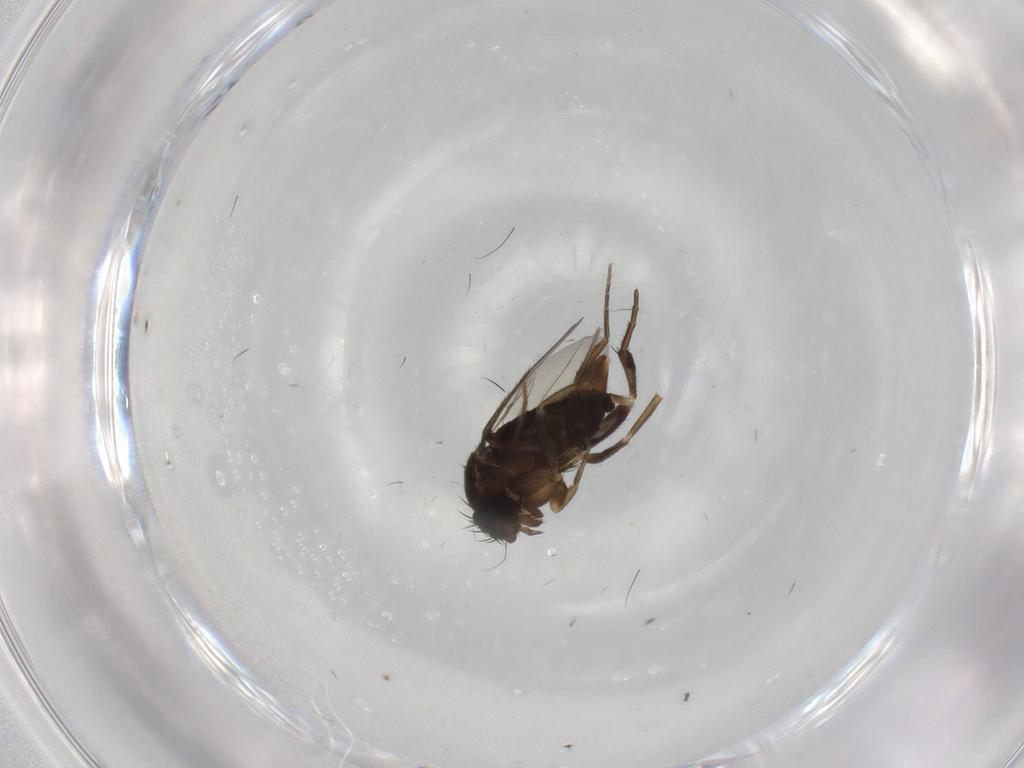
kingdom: Animalia
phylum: Arthropoda
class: Insecta
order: Diptera
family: Phoridae
